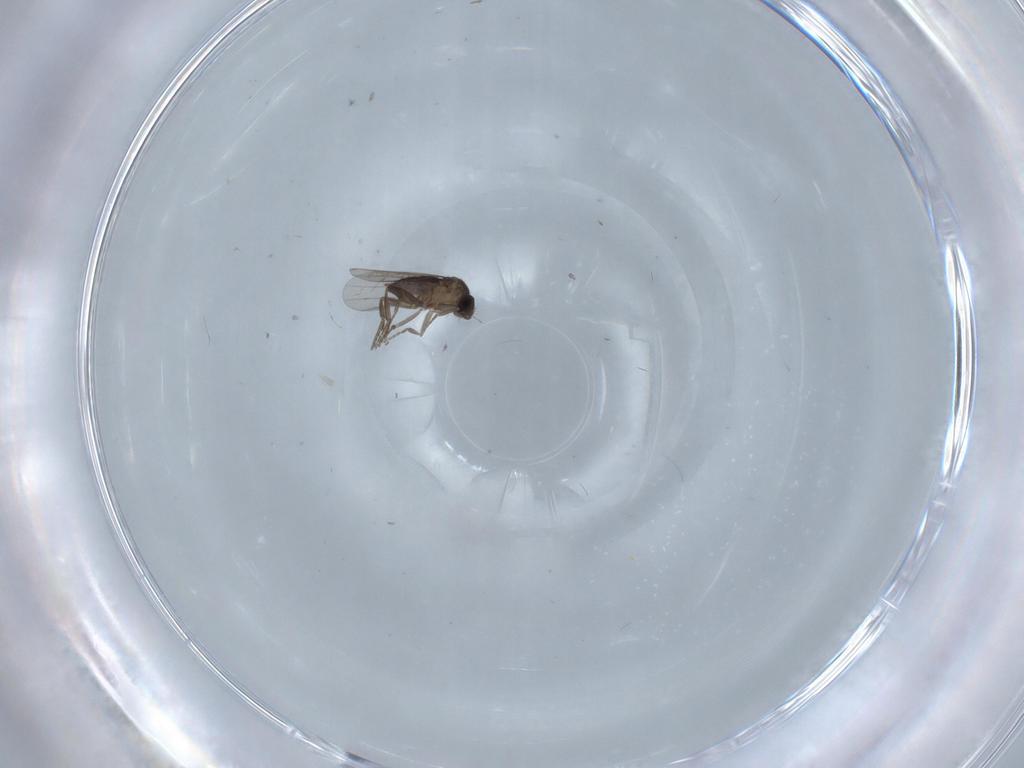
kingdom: Animalia
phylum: Arthropoda
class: Insecta
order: Diptera
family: Phoridae
